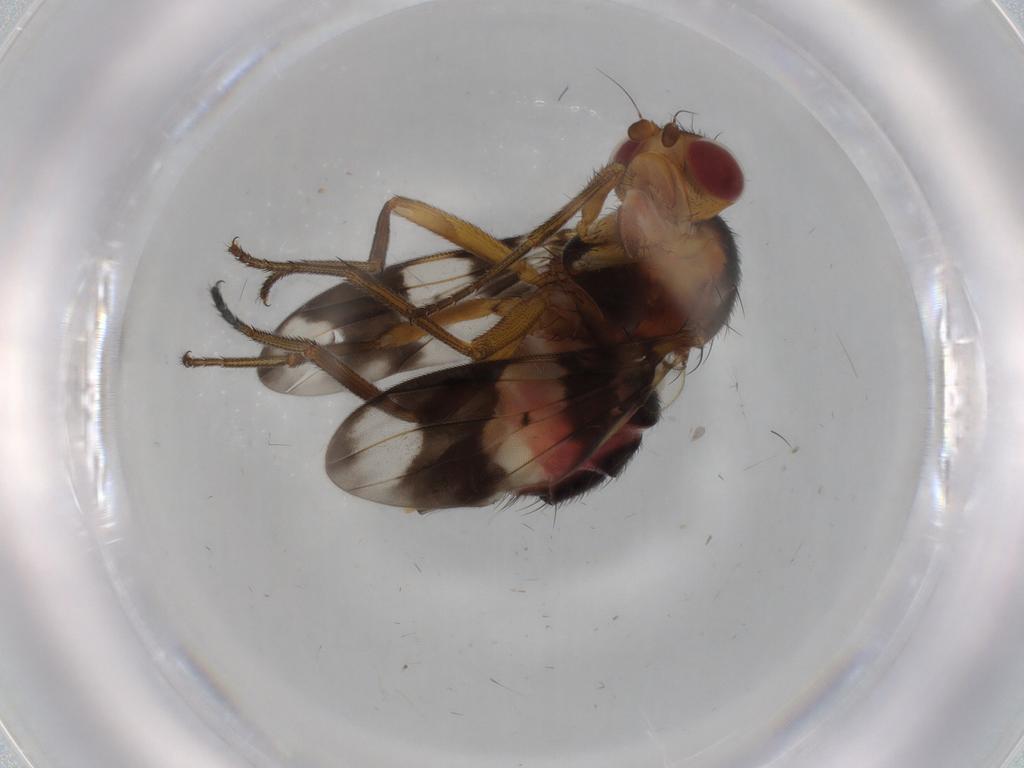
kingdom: Animalia
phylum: Arthropoda
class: Insecta
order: Diptera
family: Richardiidae
